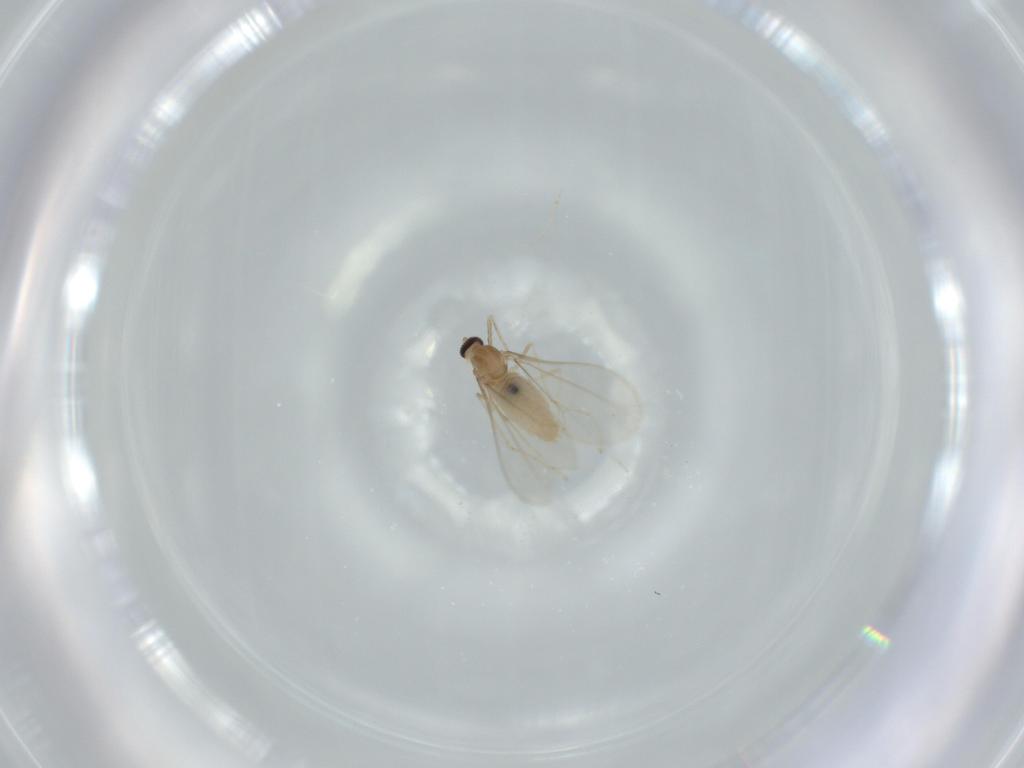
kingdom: Animalia
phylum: Arthropoda
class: Insecta
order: Diptera
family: Cecidomyiidae
